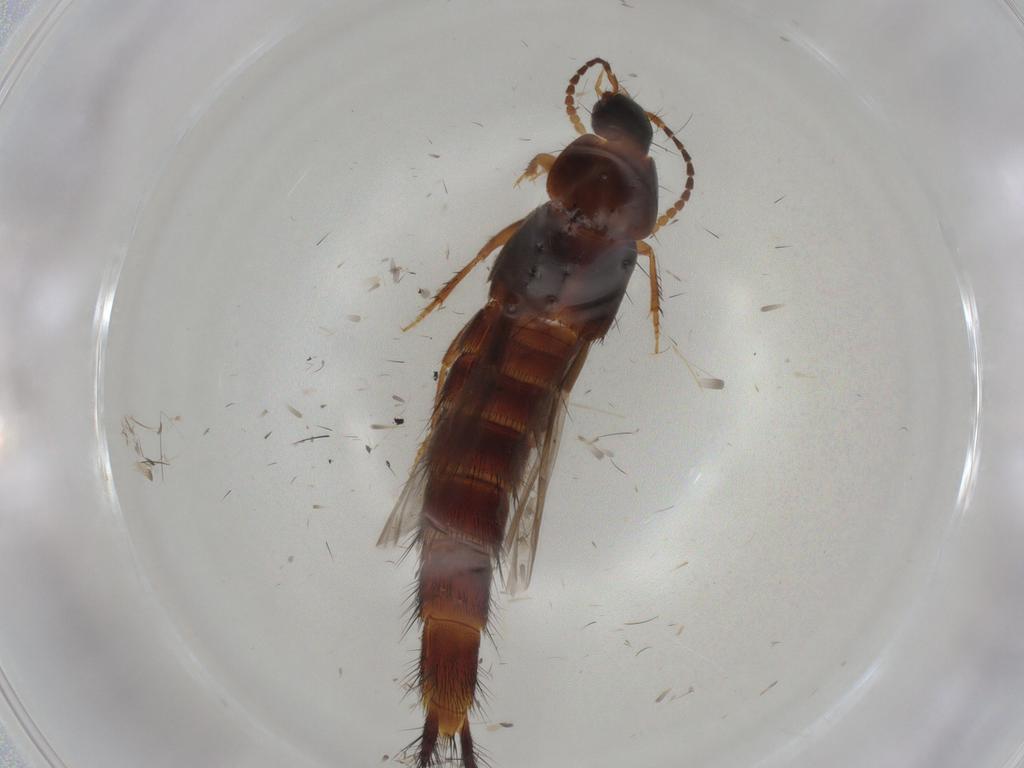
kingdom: Animalia
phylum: Arthropoda
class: Insecta
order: Coleoptera
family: Staphylinidae
